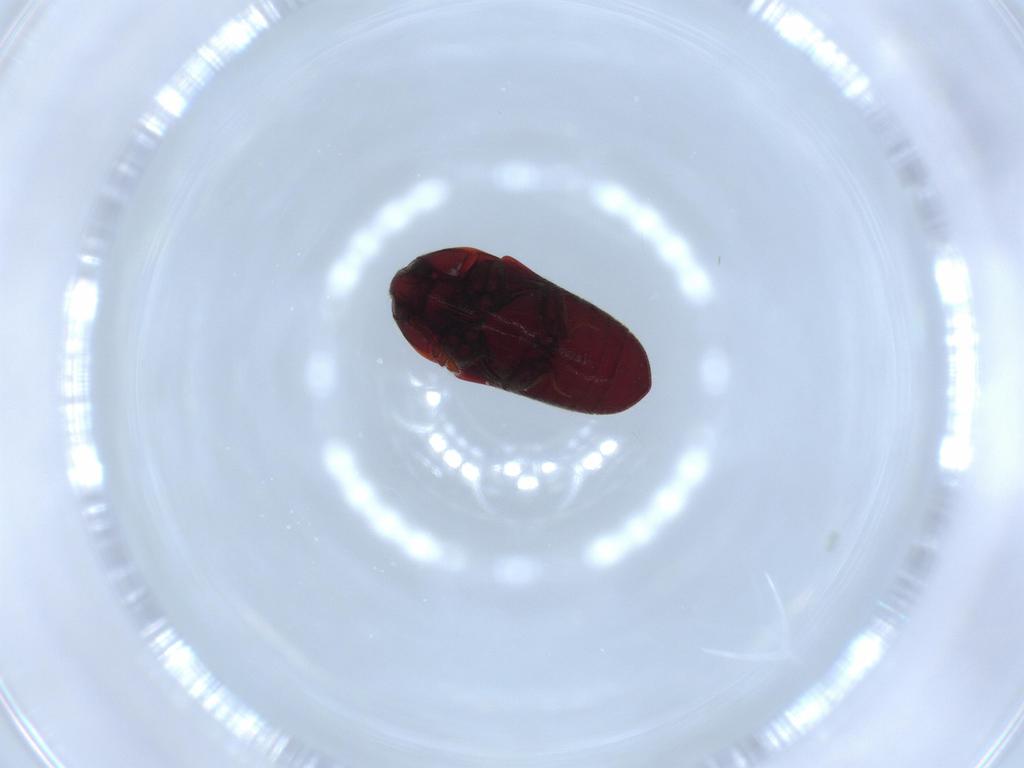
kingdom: Animalia
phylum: Arthropoda
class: Insecta
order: Coleoptera
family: Throscidae
